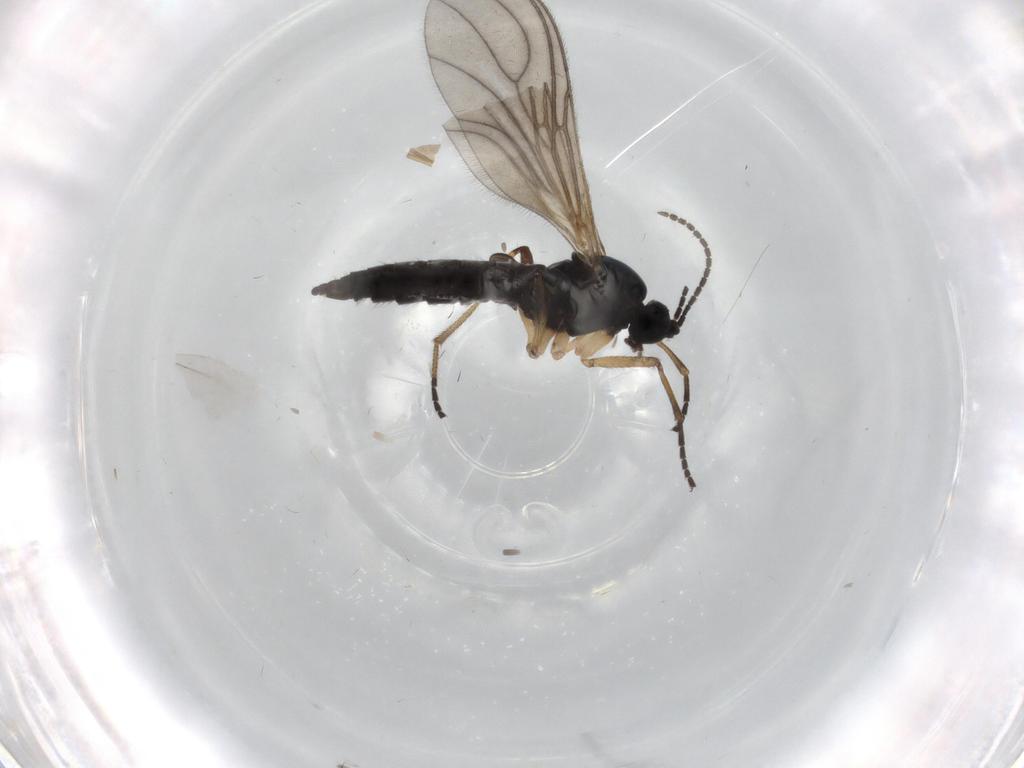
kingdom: Animalia
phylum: Arthropoda
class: Insecta
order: Diptera
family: Sciaridae
